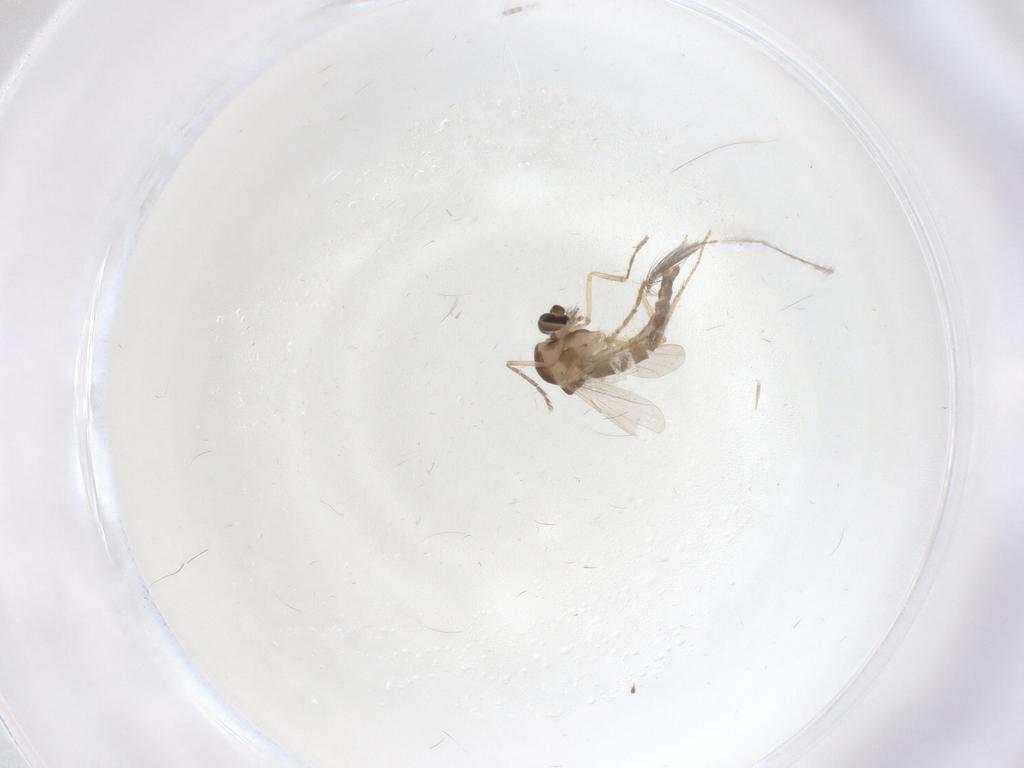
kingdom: Animalia
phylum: Arthropoda
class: Insecta
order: Diptera
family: Ceratopogonidae
